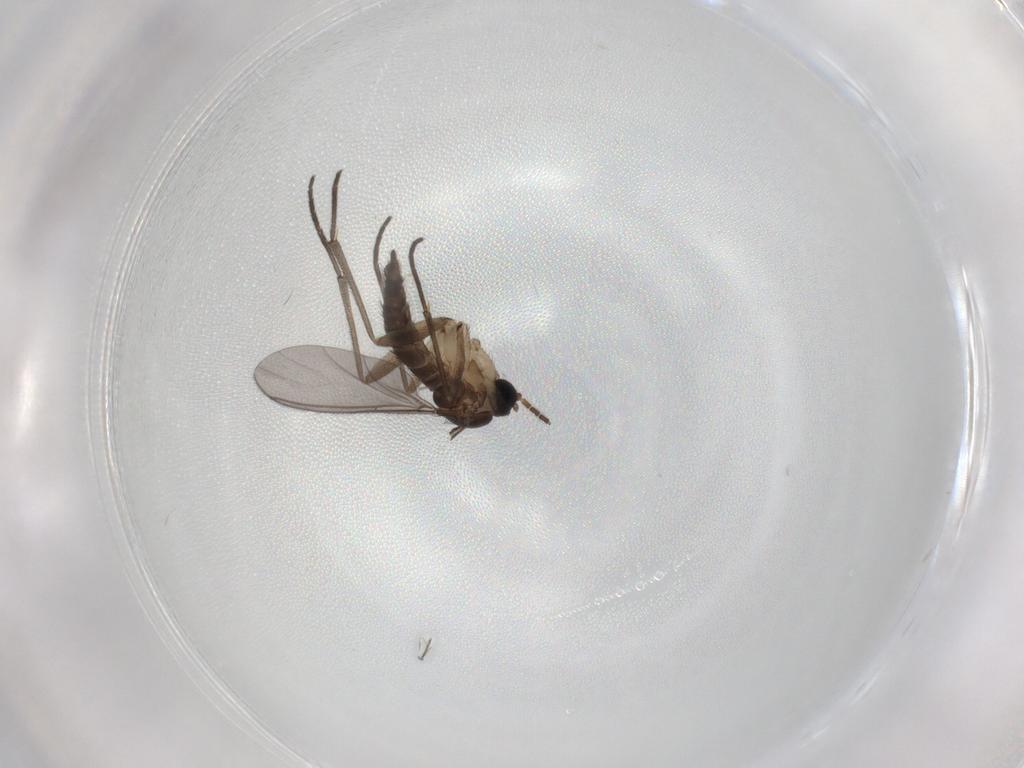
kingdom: Animalia
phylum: Arthropoda
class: Insecta
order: Diptera
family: Sciaridae
